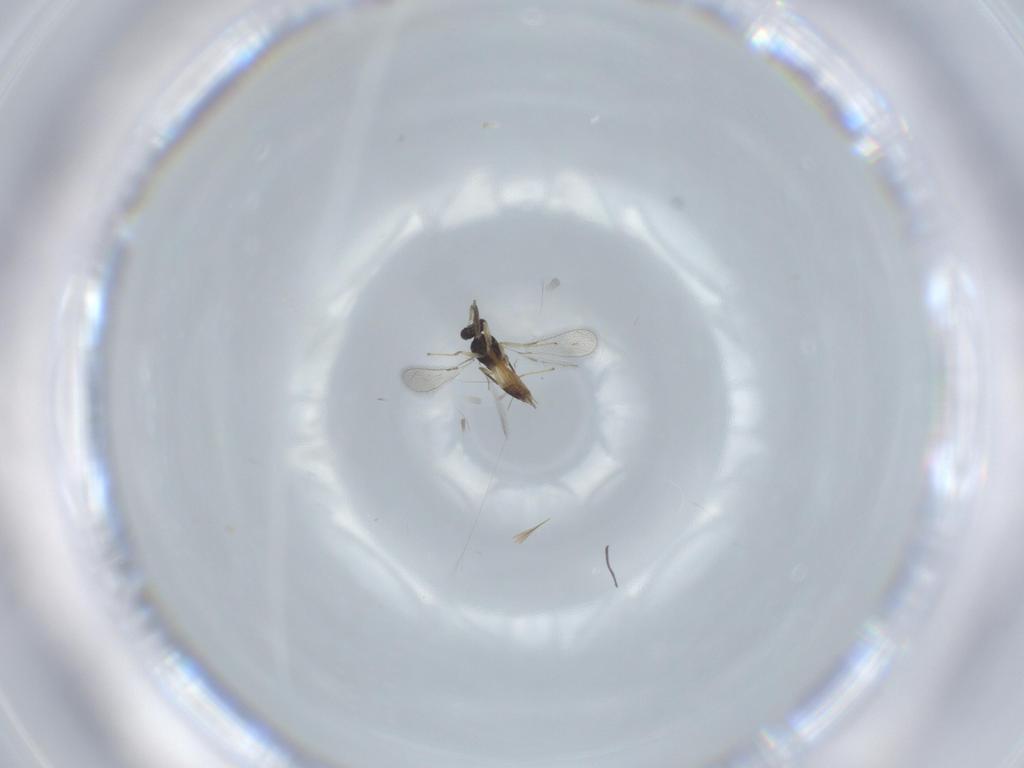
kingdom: Animalia
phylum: Arthropoda
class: Insecta
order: Hymenoptera
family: Mymaridae
